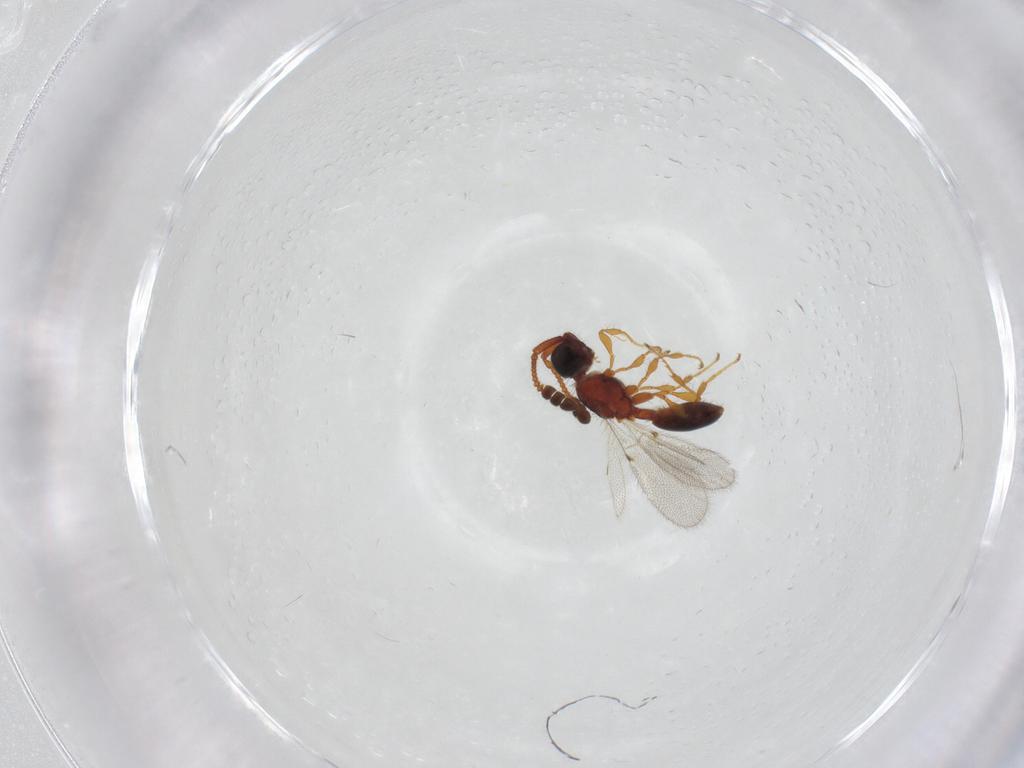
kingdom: Animalia
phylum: Arthropoda
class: Insecta
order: Hymenoptera
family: Diapriidae
